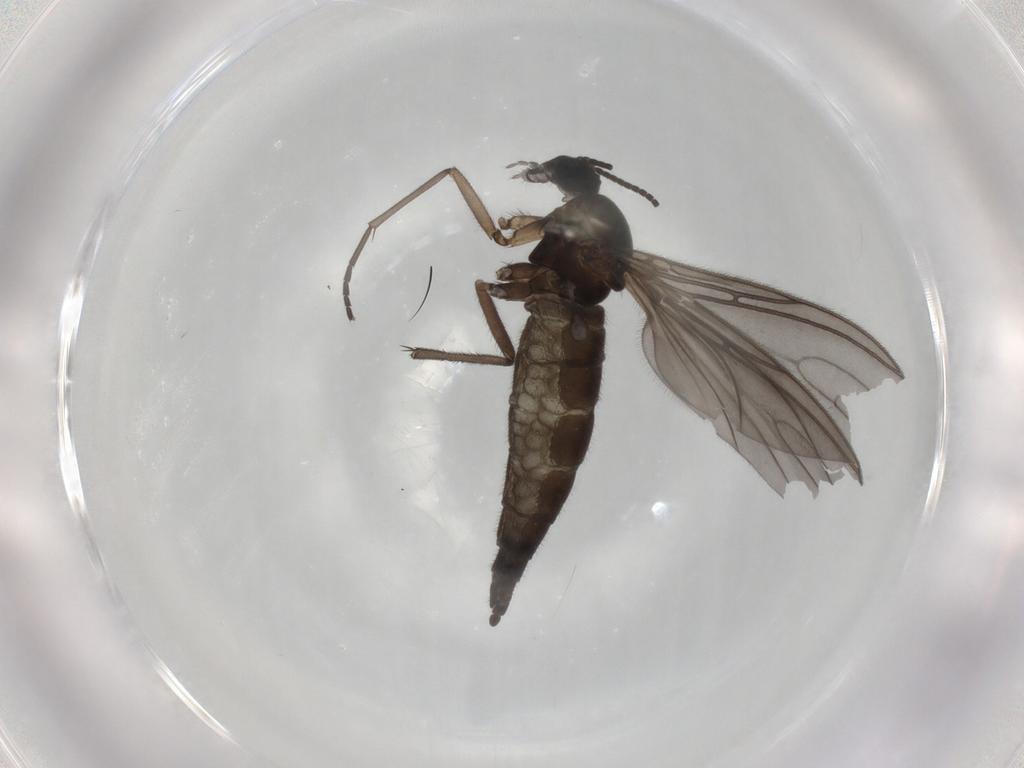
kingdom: Animalia
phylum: Arthropoda
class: Insecta
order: Diptera
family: Sciaridae
